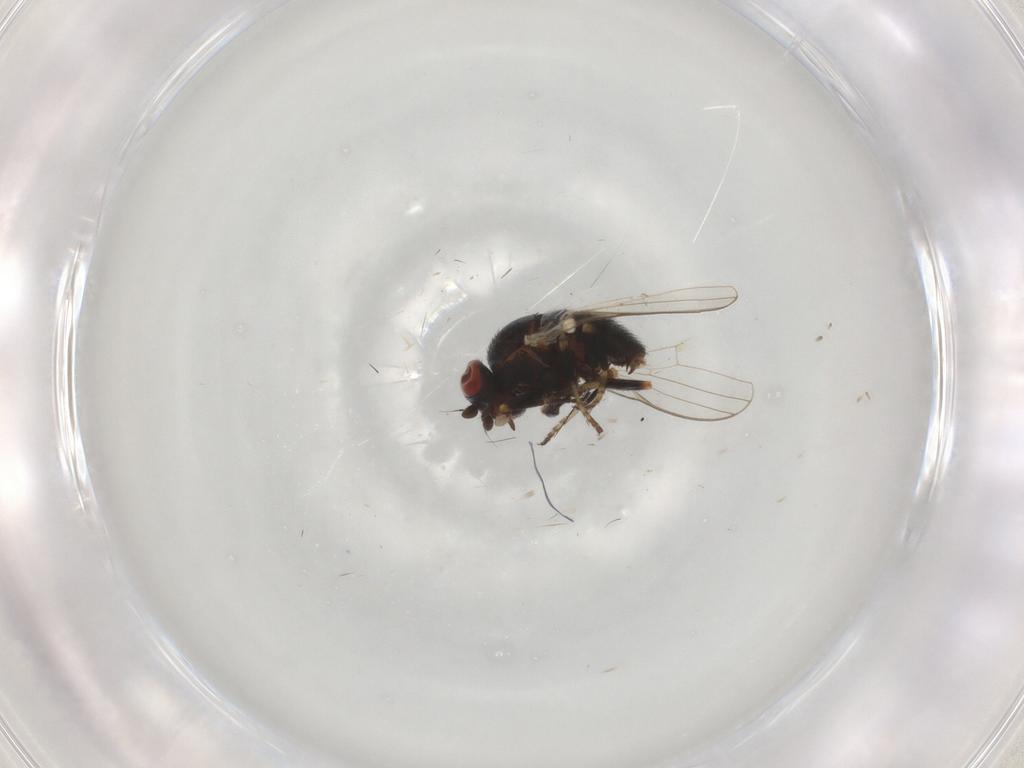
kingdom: Animalia
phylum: Arthropoda
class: Insecta
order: Diptera
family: Chamaemyiidae
